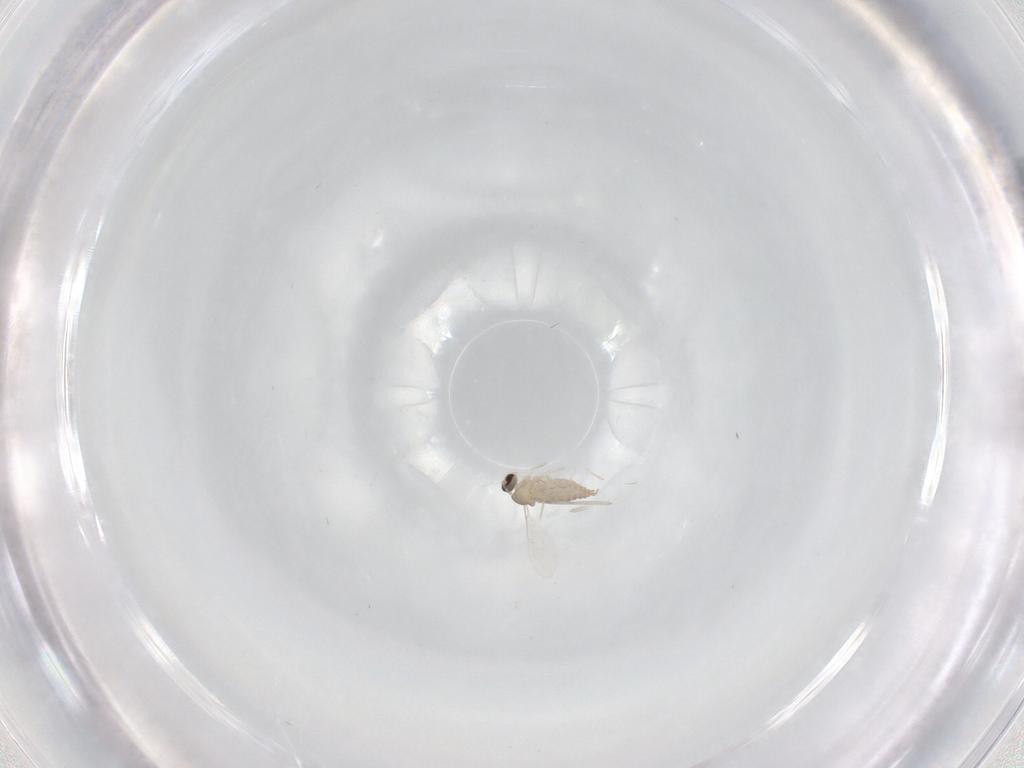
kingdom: Animalia
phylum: Arthropoda
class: Insecta
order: Diptera
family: Cecidomyiidae
